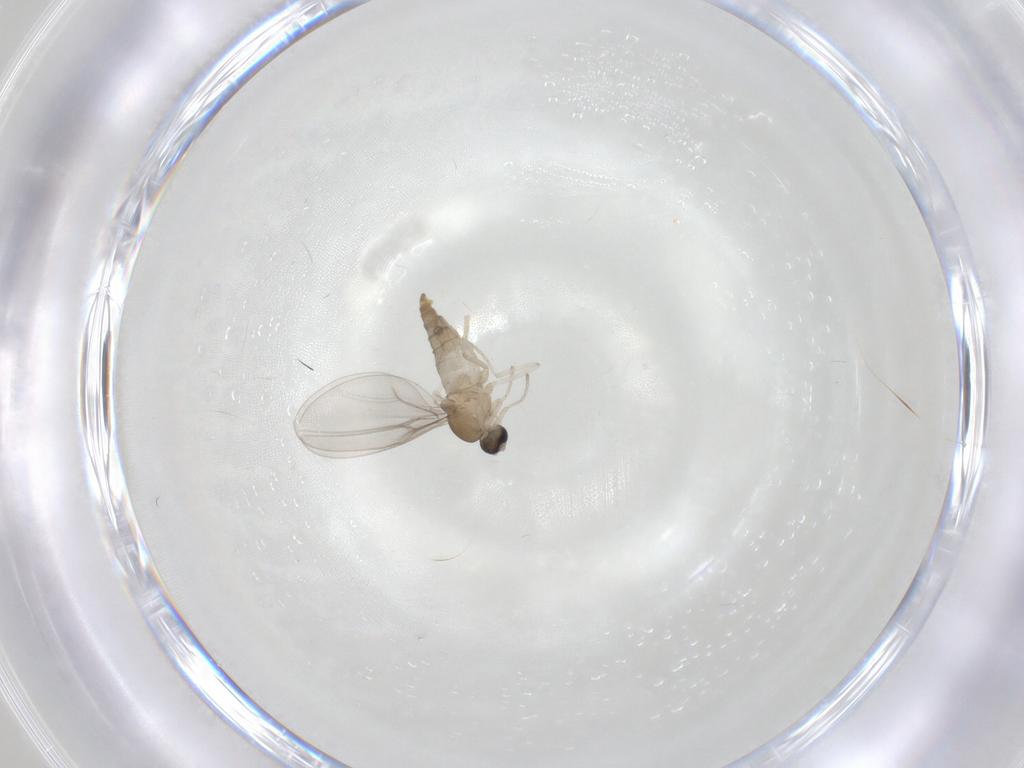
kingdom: Animalia
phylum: Arthropoda
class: Insecta
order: Diptera
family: Cecidomyiidae
